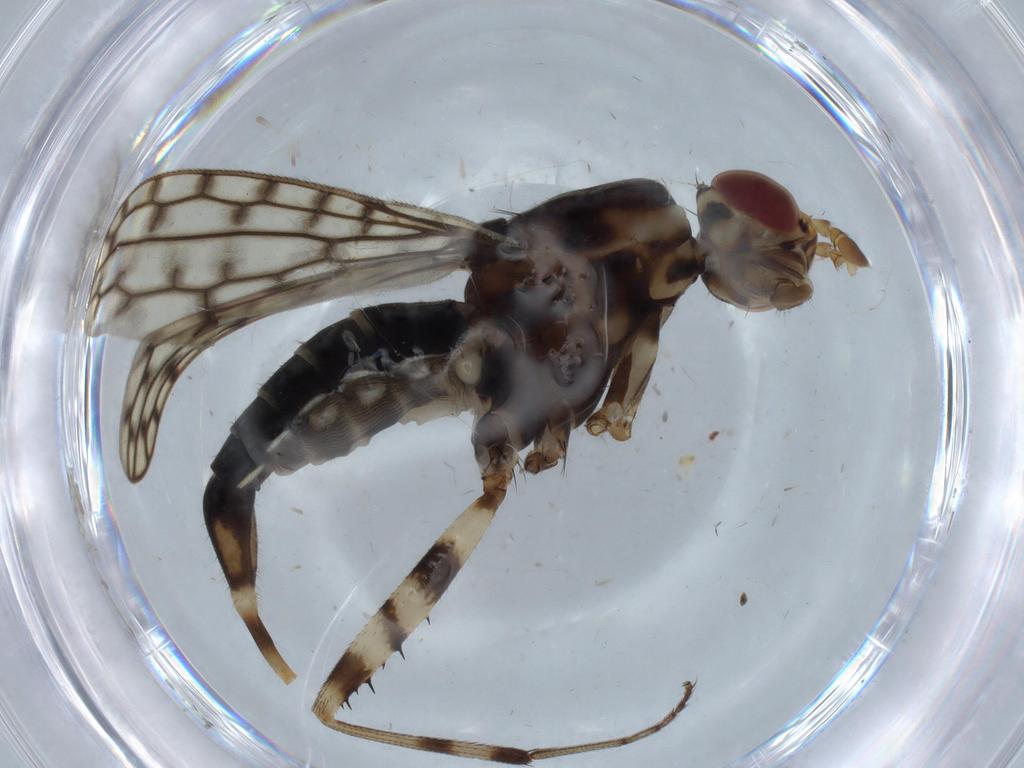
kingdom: Animalia
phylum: Arthropoda
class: Insecta
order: Diptera
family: Neriidae
